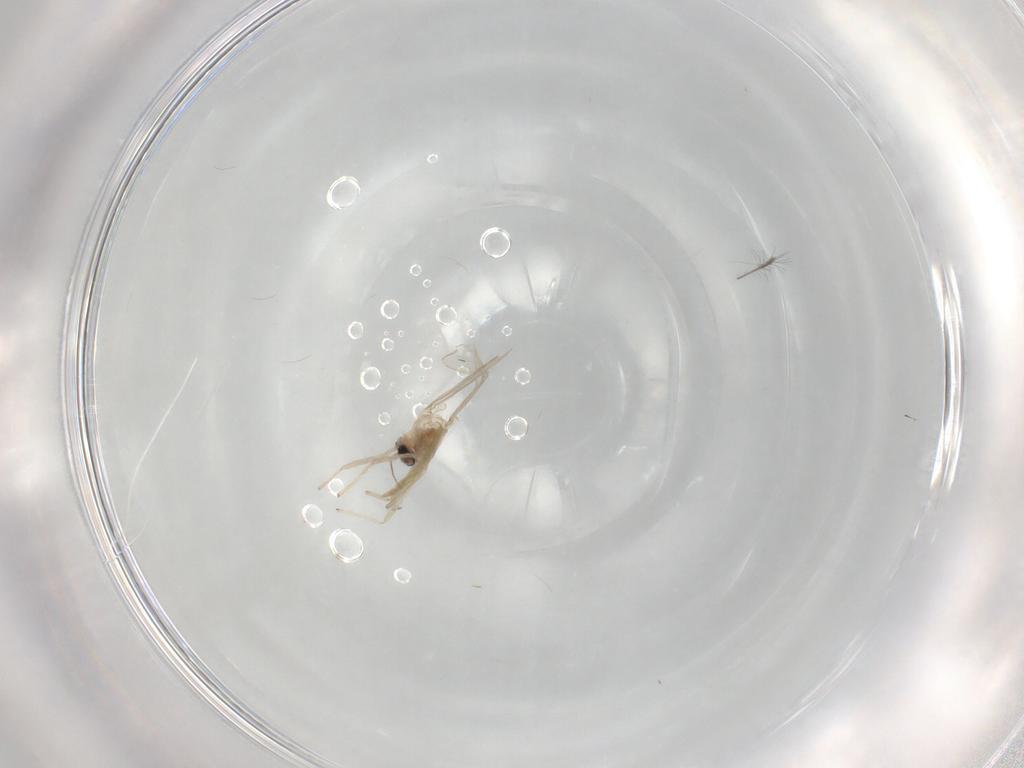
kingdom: Animalia
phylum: Arthropoda
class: Insecta
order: Diptera
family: Chironomidae
